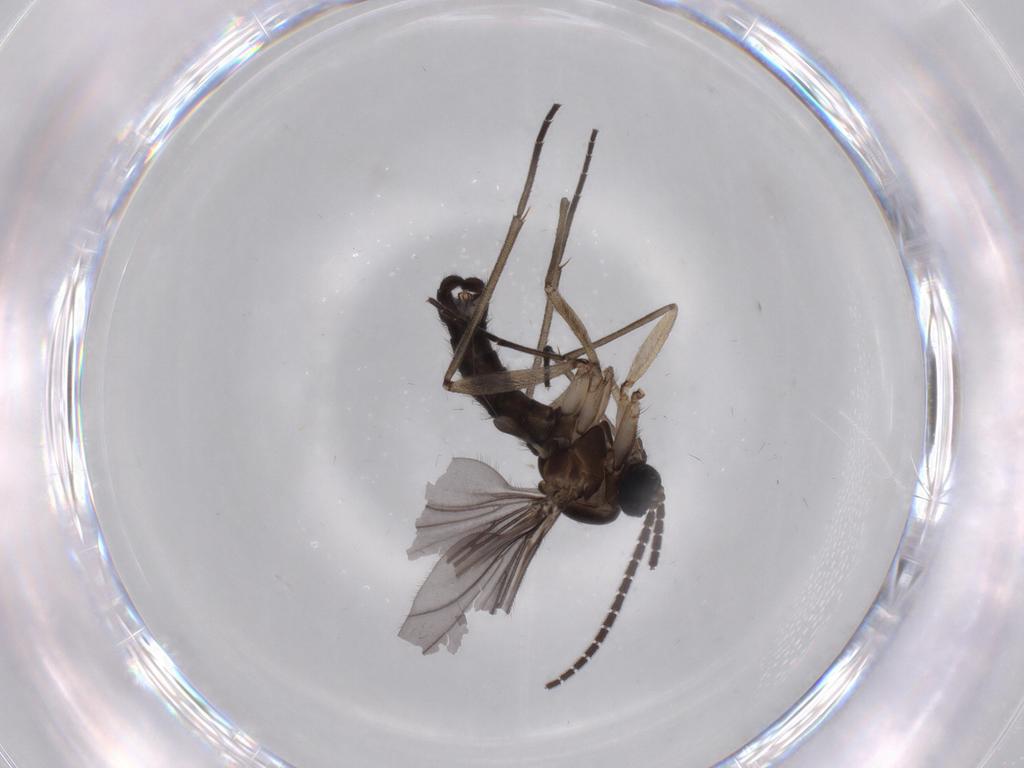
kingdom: Animalia
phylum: Arthropoda
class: Insecta
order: Diptera
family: Sciaridae
